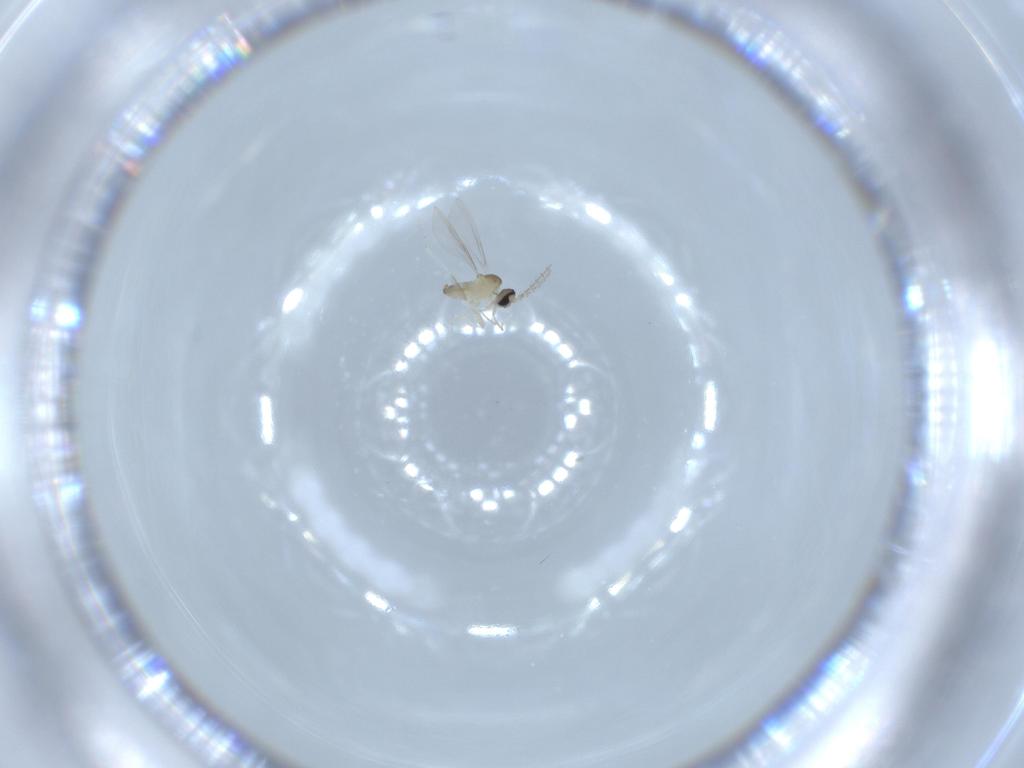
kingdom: Animalia
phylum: Arthropoda
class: Insecta
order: Diptera
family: Cecidomyiidae
